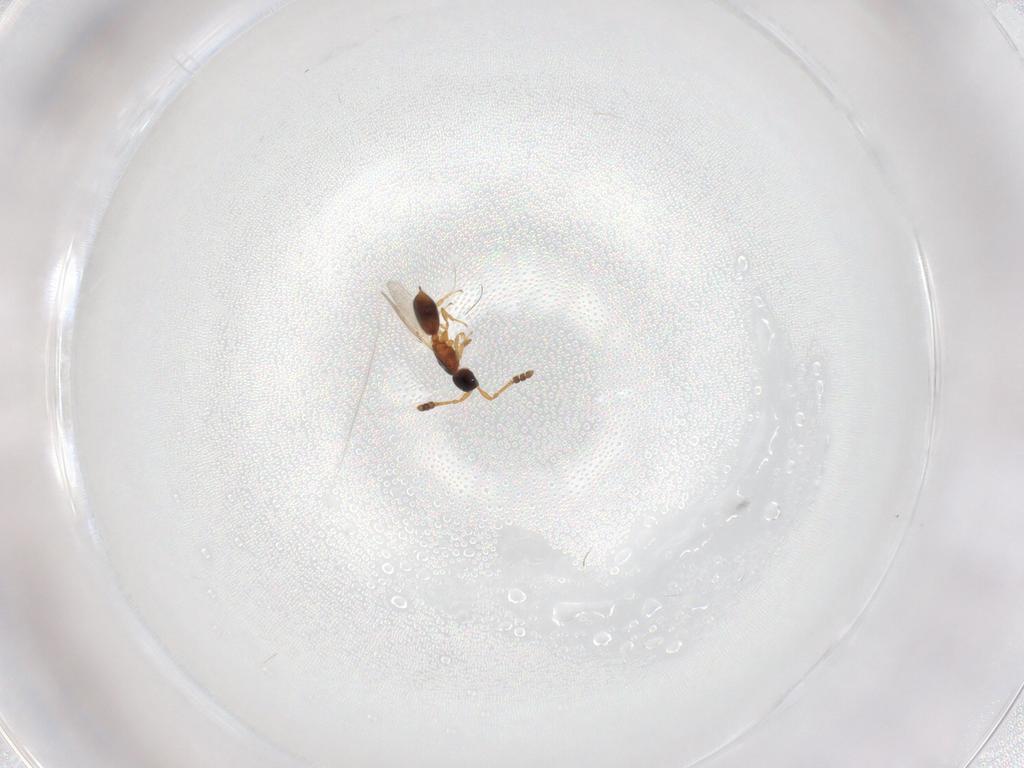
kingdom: Animalia
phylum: Arthropoda
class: Insecta
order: Hymenoptera
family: Diapriidae
